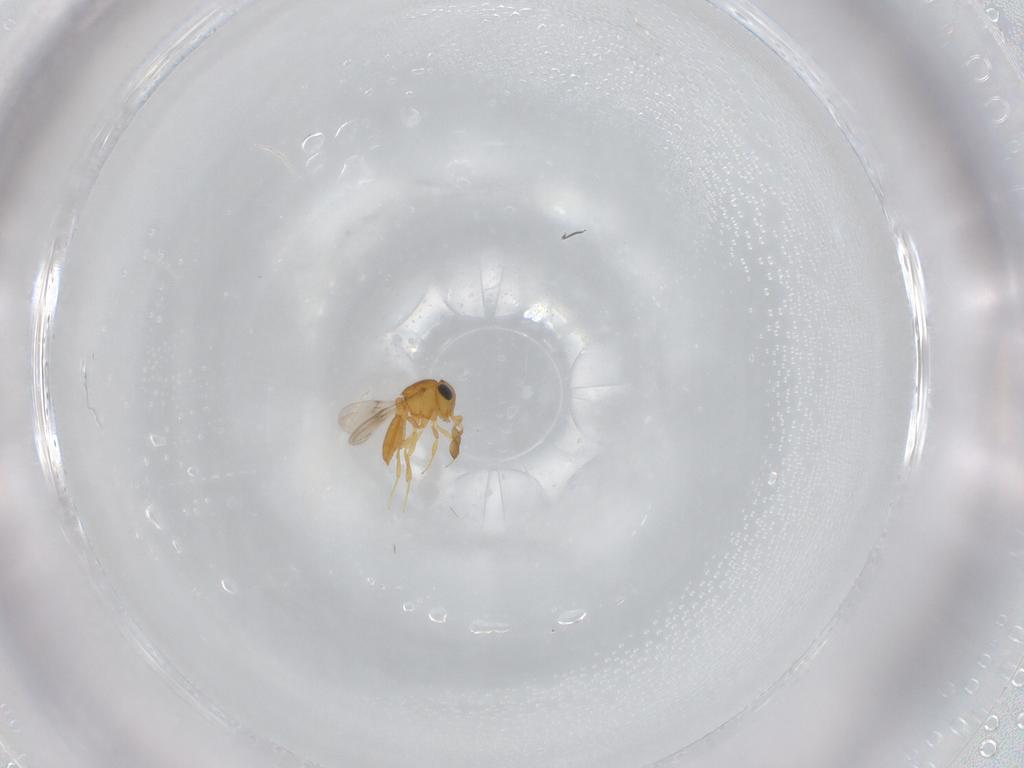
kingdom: Animalia
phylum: Arthropoda
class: Insecta
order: Hymenoptera
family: Scelionidae
